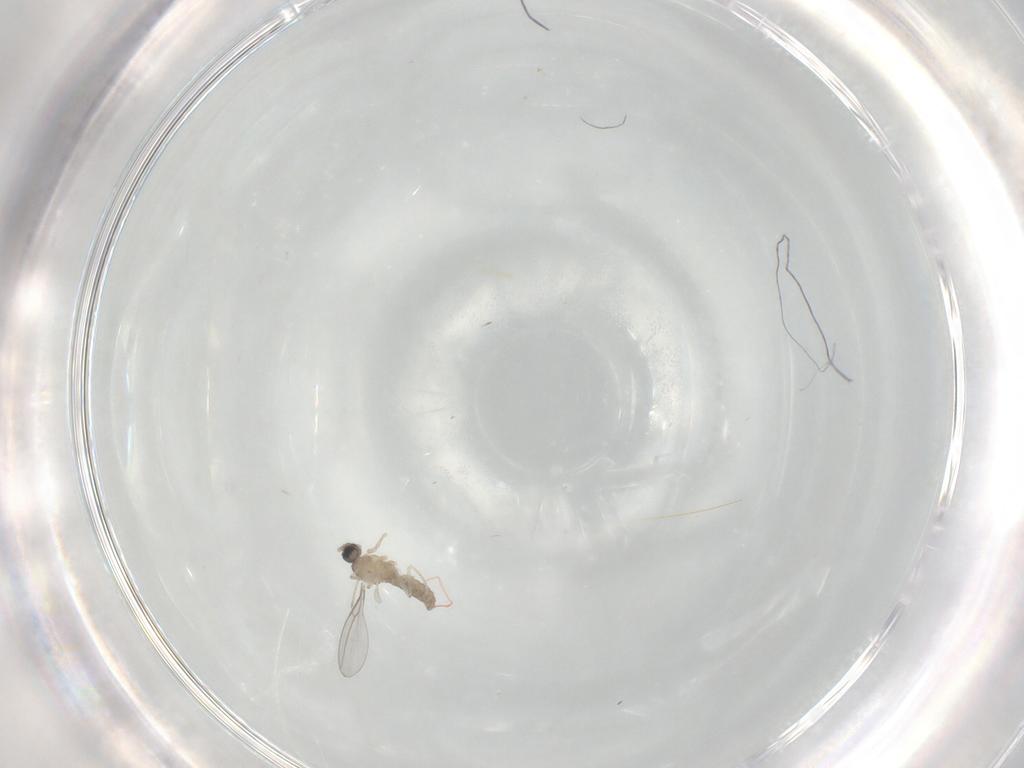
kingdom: Animalia
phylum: Arthropoda
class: Insecta
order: Diptera
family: Cecidomyiidae
